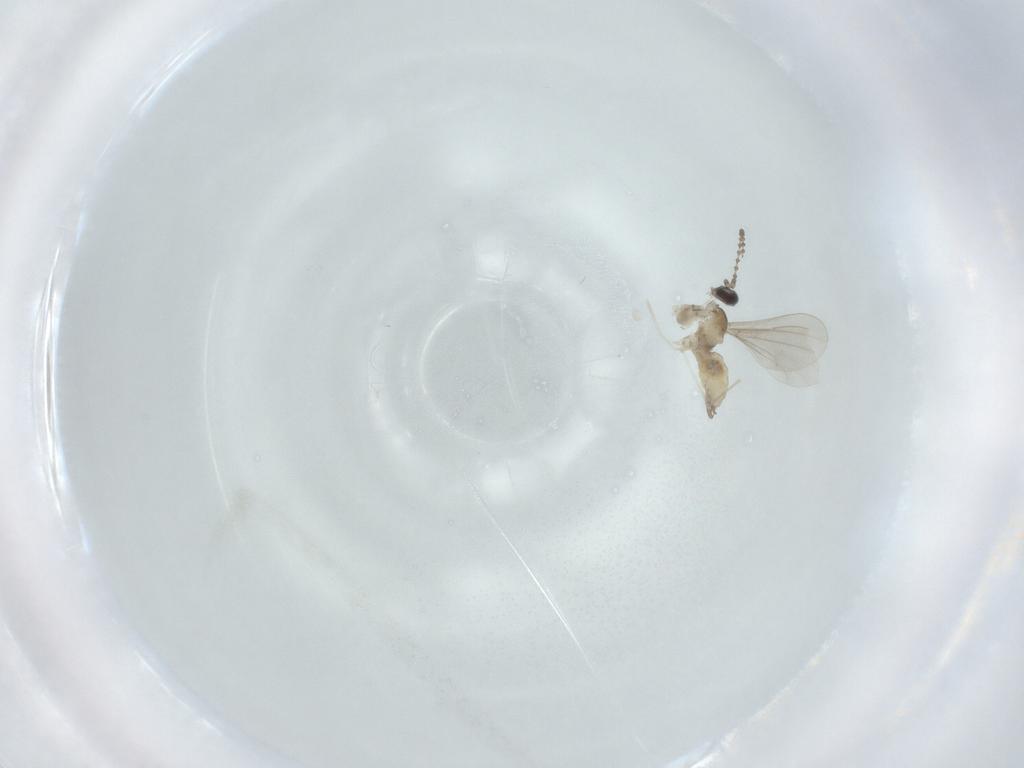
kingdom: Animalia
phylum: Arthropoda
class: Insecta
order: Diptera
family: Cecidomyiidae
